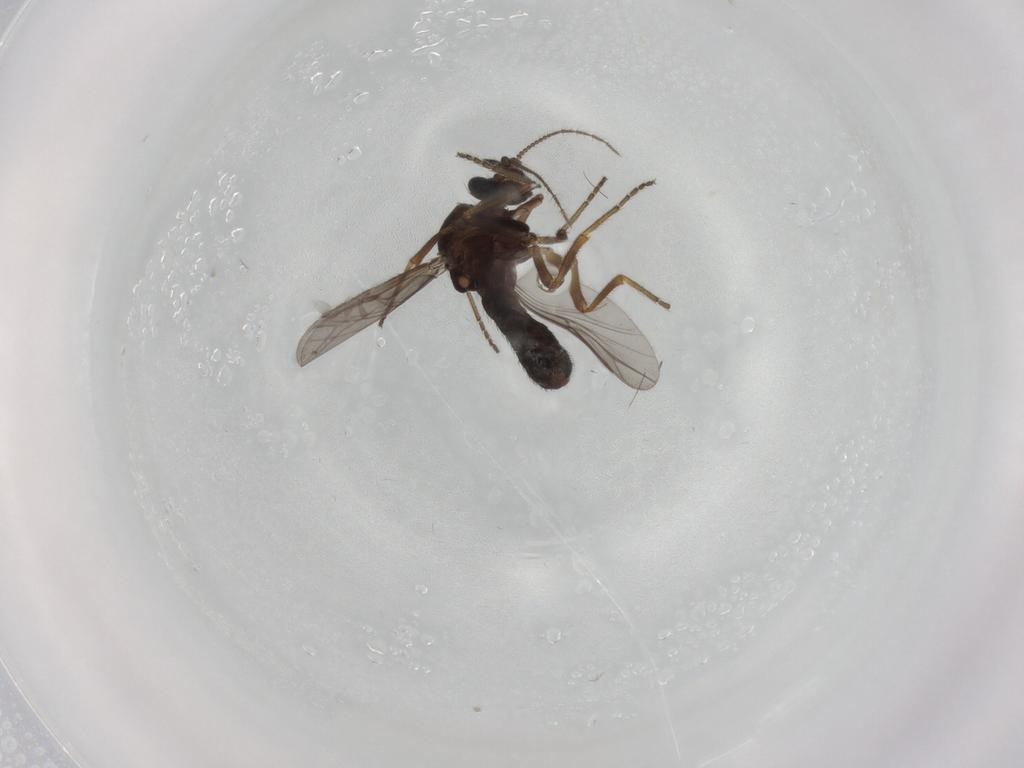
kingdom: Animalia
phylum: Arthropoda
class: Insecta
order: Diptera
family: Ceratopogonidae
